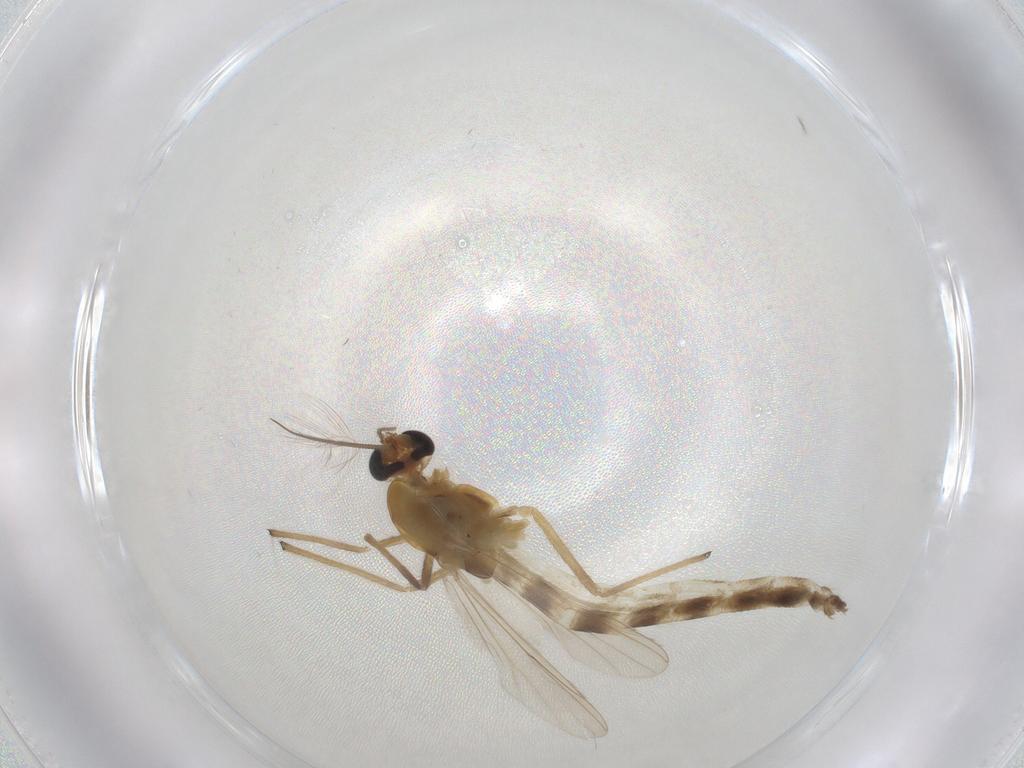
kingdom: Animalia
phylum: Arthropoda
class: Insecta
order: Diptera
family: Chironomidae
